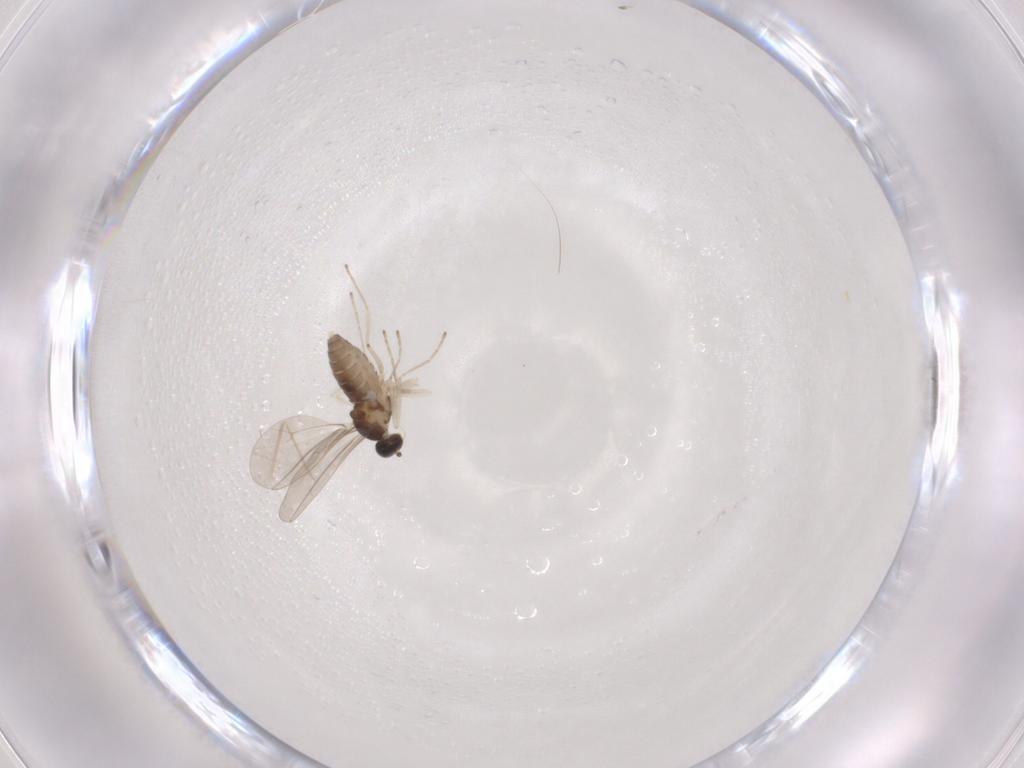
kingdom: Animalia
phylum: Arthropoda
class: Insecta
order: Diptera
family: Cecidomyiidae
